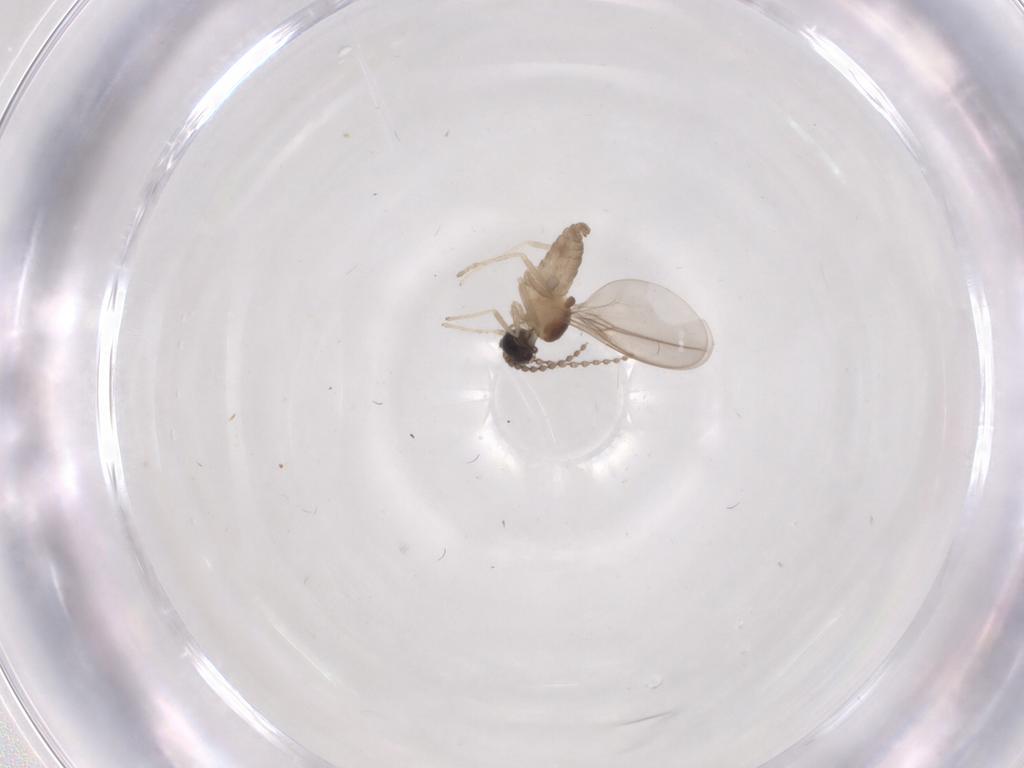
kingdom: Animalia
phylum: Arthropoda
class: Insecta
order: Diptera
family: Cecidomyiidae
